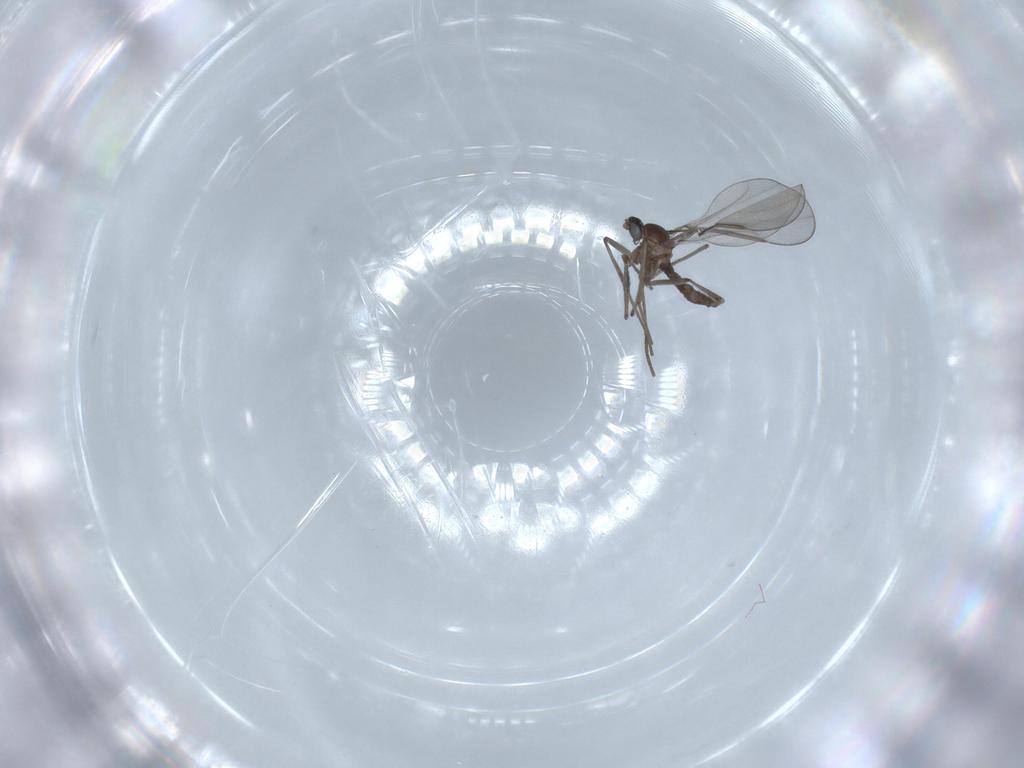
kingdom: Animalia
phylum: Arthropoda
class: Insecta
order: Diptera
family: Cecidomyiidae
